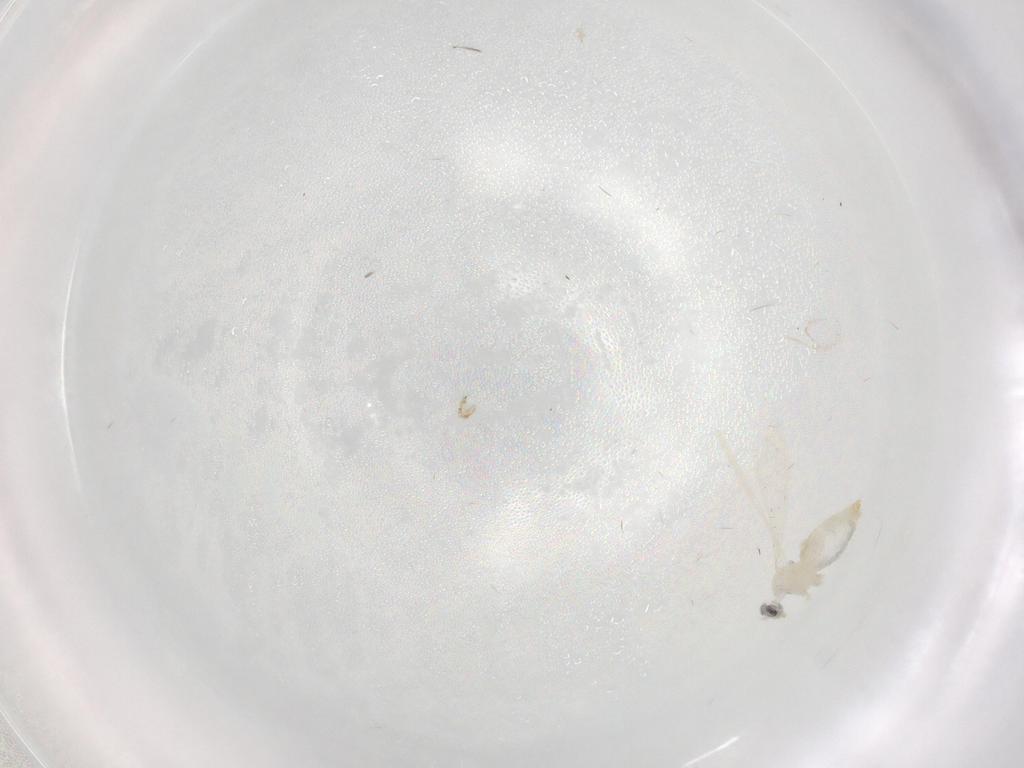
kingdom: Animalia
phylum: Arthropoda
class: Insecta
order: Diptera
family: Cecidomyiidae
